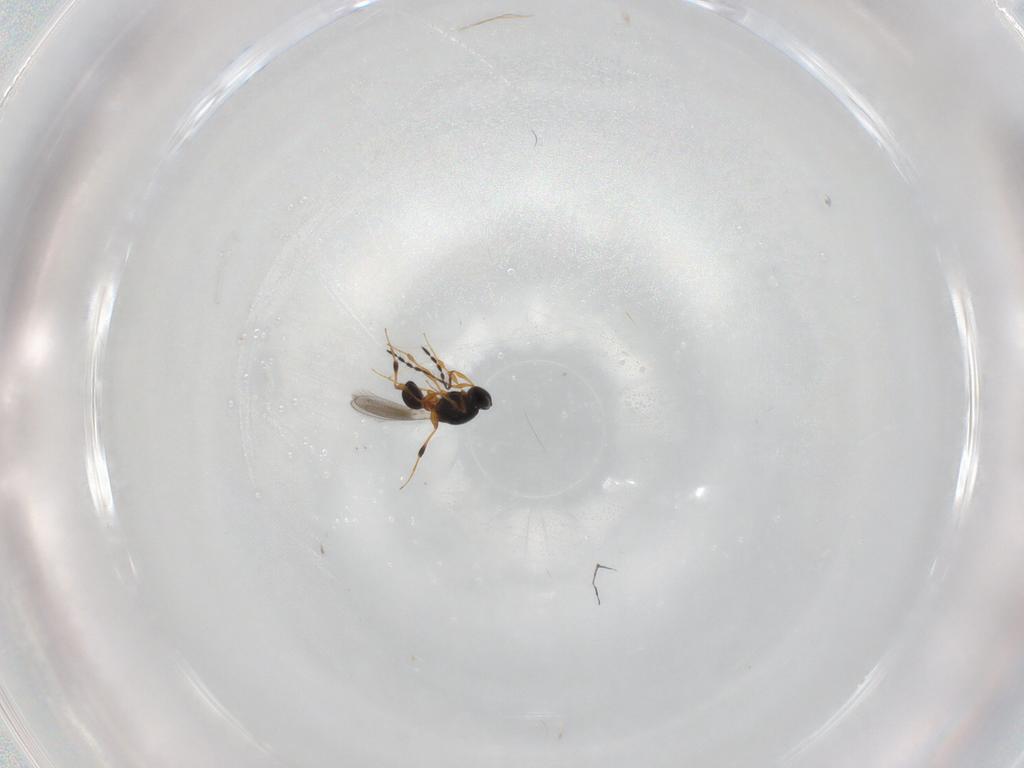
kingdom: Animalia
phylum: Arthropoda
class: Insecta
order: Hymenoptera
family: Platygastridae
